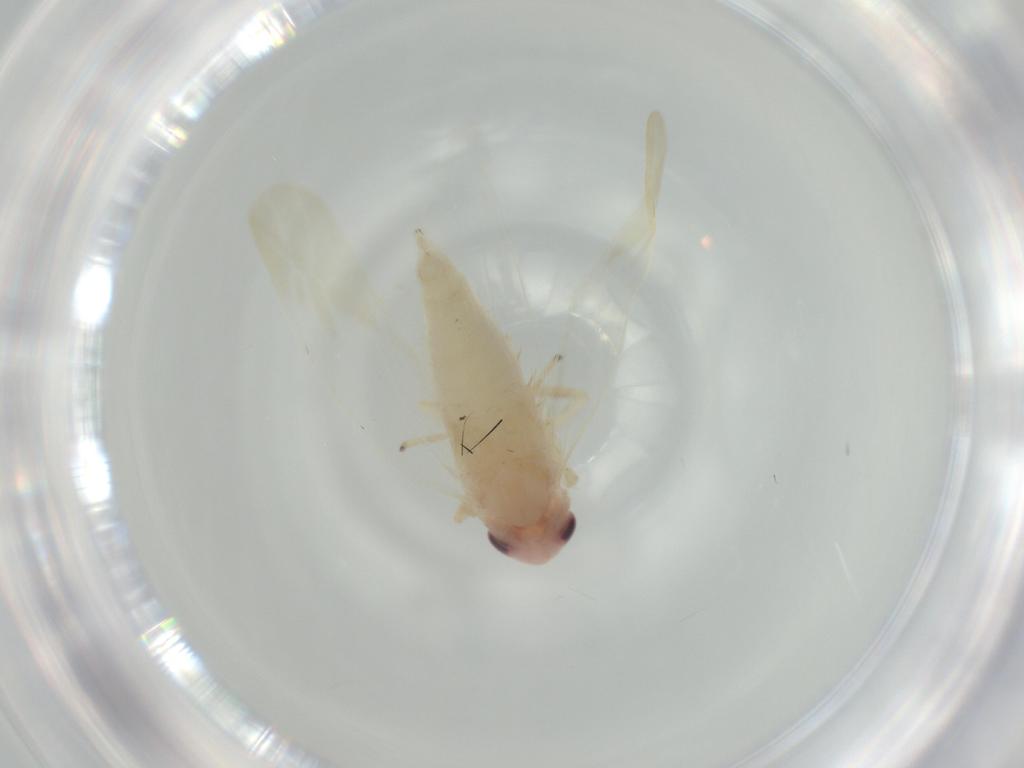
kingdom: Animalia
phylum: Arthropoda
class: Insecta
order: Hemiptera
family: Cicadellidae
